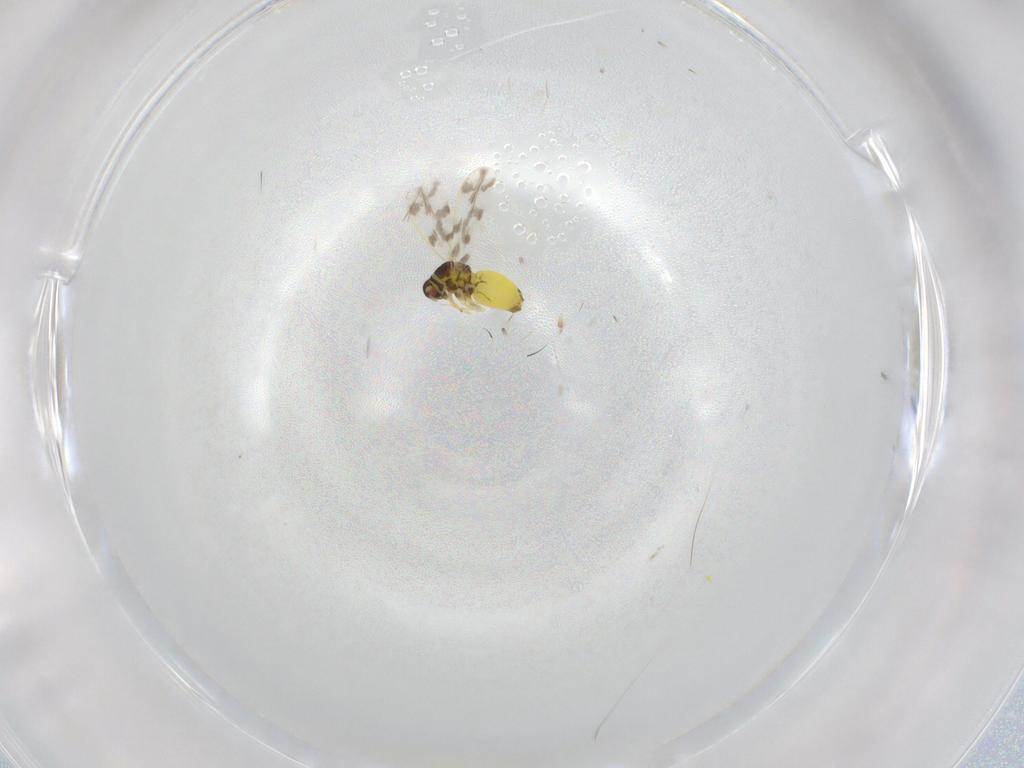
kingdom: Animalia
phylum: Arthropoda
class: Insecta
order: Hemiptera
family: Aleyrodidae
